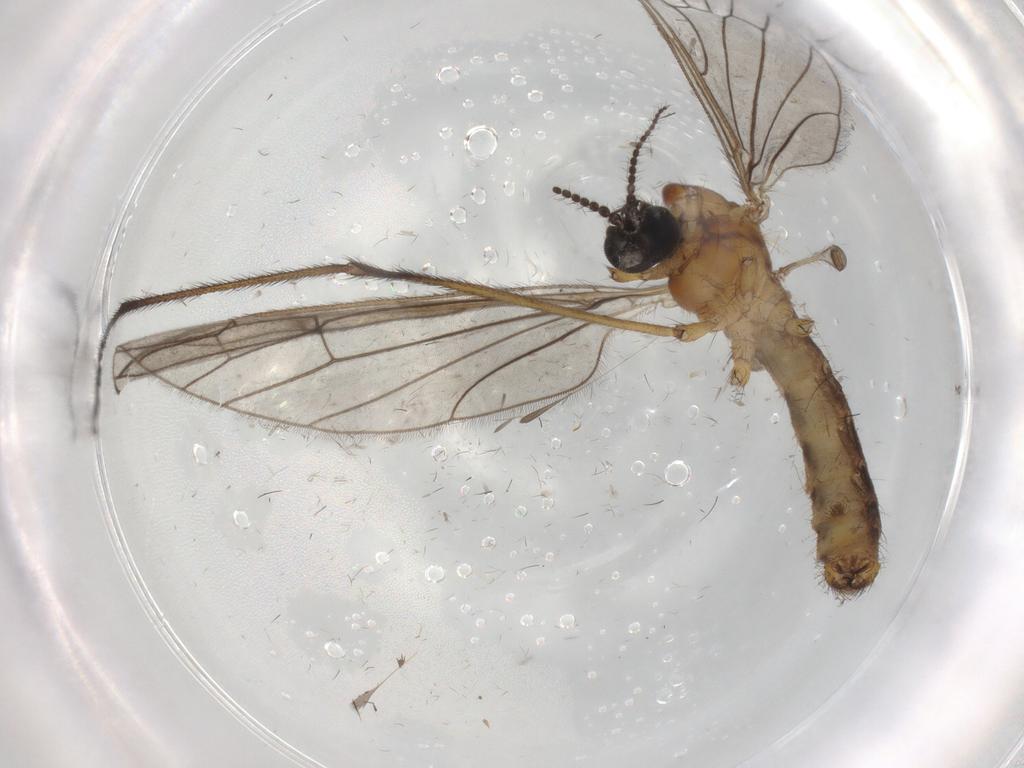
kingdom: Animalia
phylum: Arthropoda
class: Insecta
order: Diptera
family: Limoniidae
